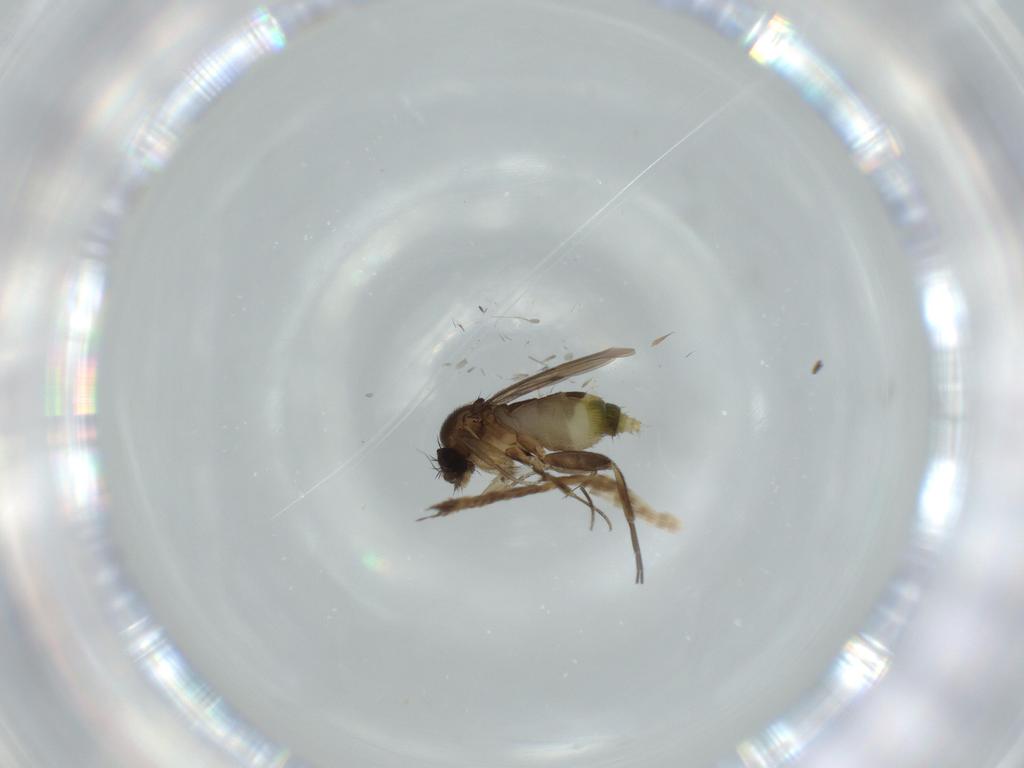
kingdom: Animalia
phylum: Arthropoda
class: Insecta
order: Diptera
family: Phoridae
